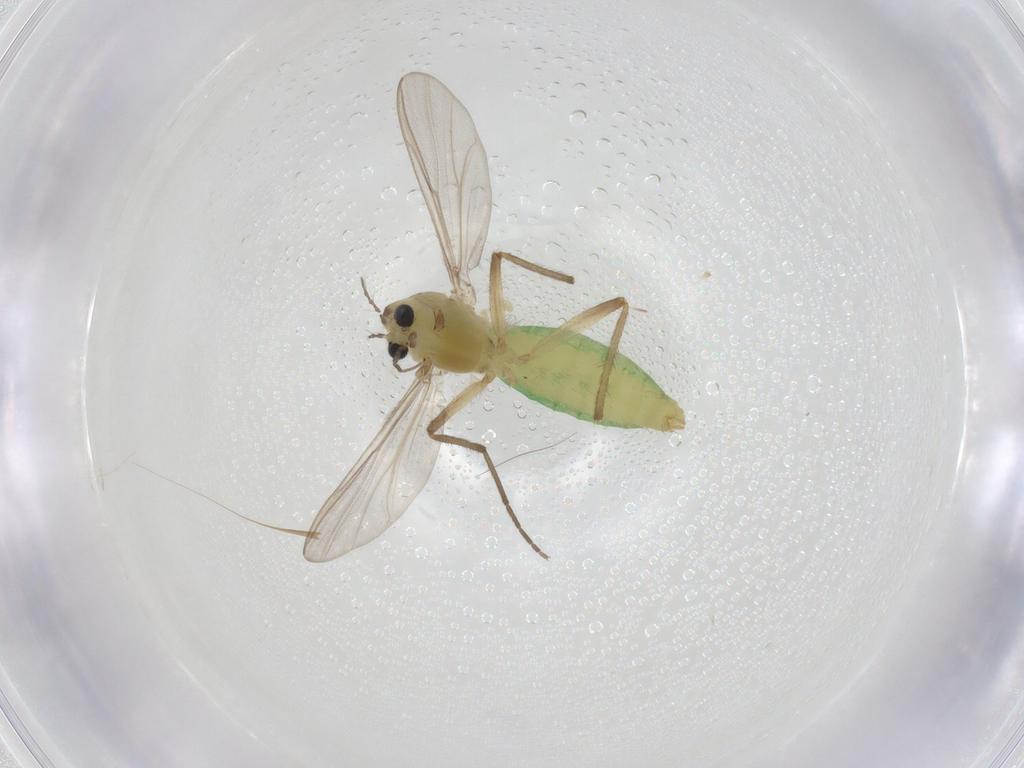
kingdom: Animalia
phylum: Arthropoda
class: Insecta
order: Diptera
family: Chironomidae
